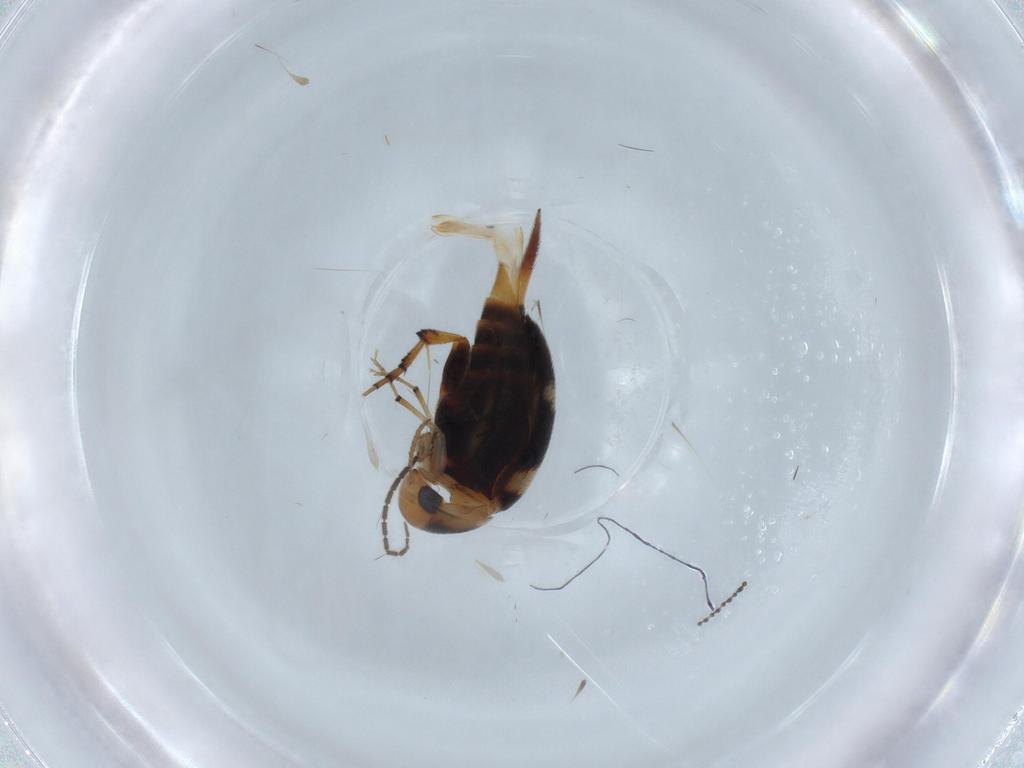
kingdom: Animalia
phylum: Arthropoda
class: Insecta
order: Coleoptera
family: Mordellidae
